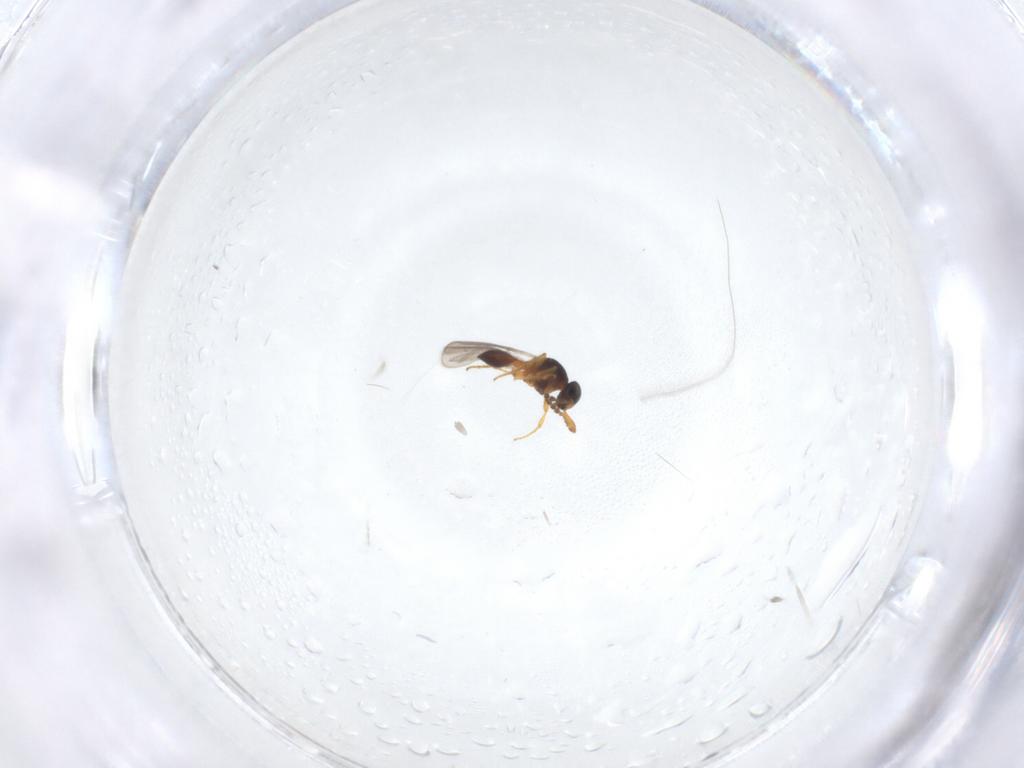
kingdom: Animalia
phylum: Arthropoda
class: Insecta
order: Hymenoptera
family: Platygastridae
